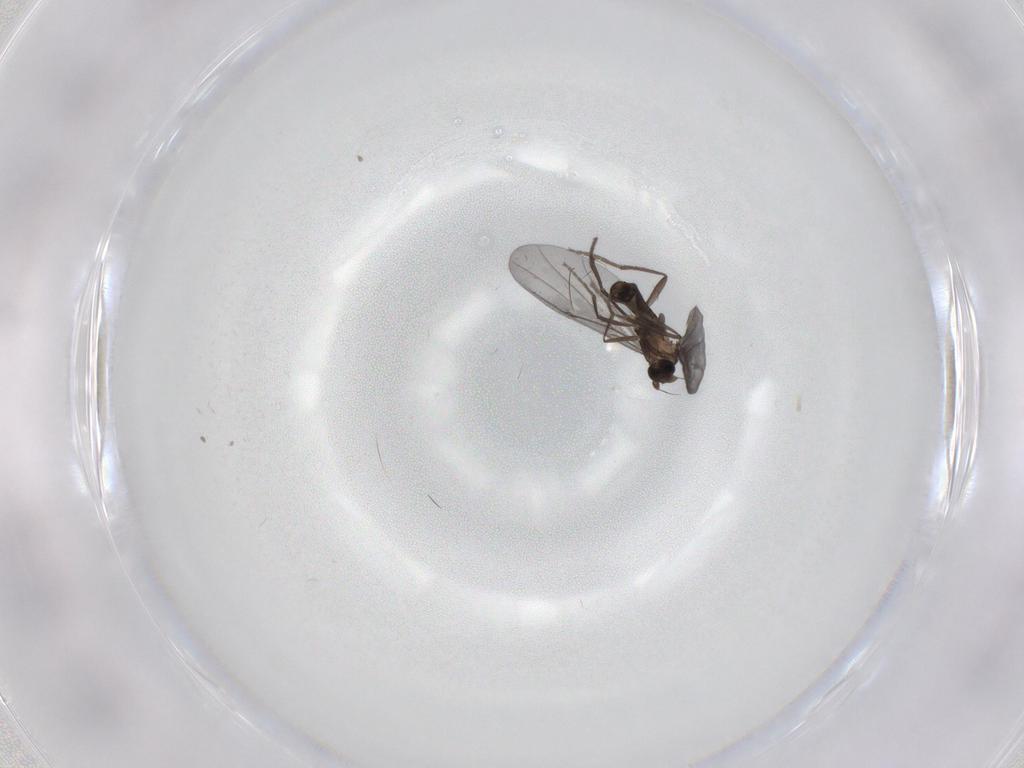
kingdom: Animalia
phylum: Arthropoda
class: Insecta
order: Diptera
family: Phoridae
